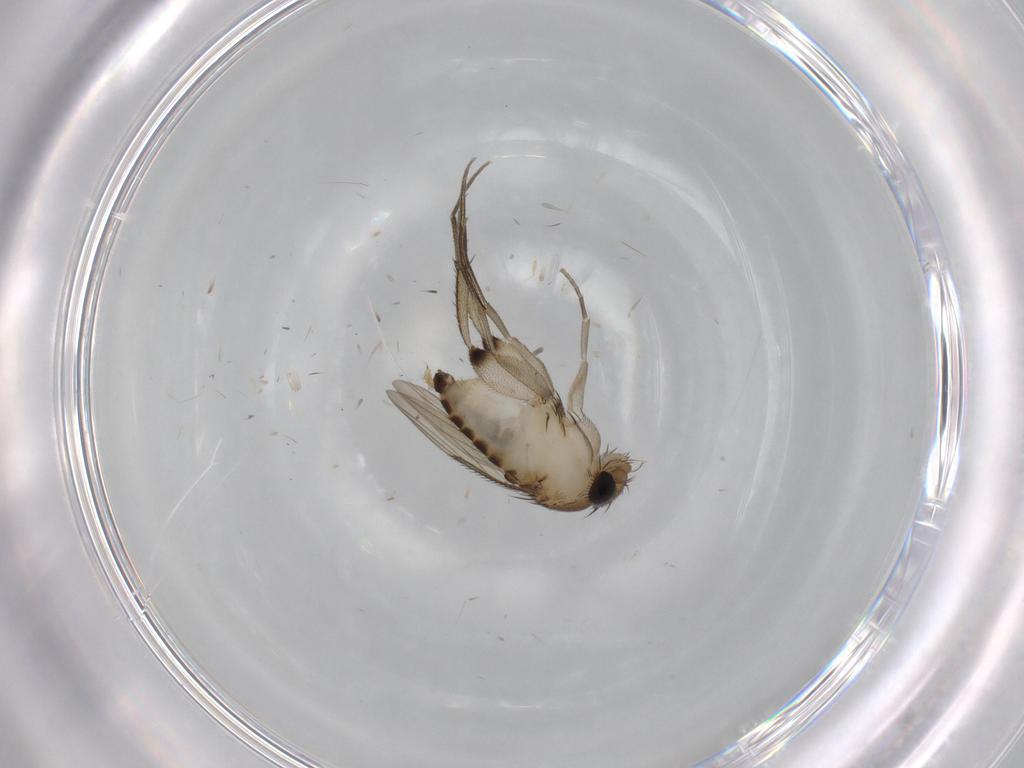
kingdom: Animalia
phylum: Arthropoda
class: Insecta
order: Diptera
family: Phoridae
